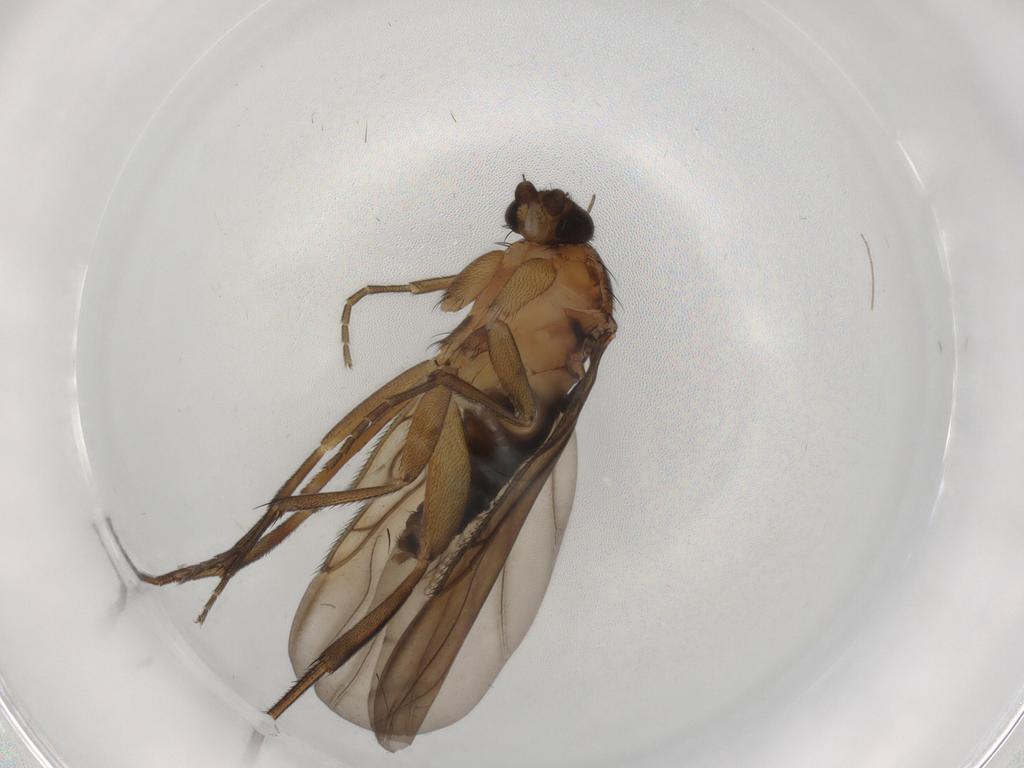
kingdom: Animalia
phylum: Arthropoda
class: Insecta
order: Diptera
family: Phoridae
